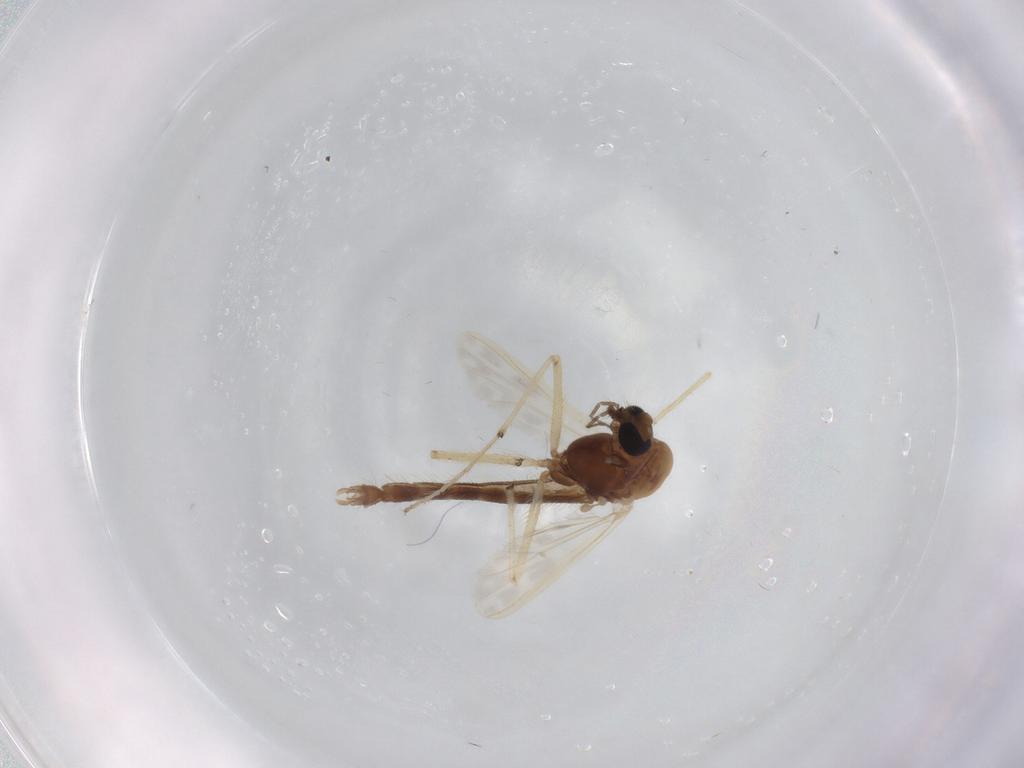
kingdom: Animalia
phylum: Arthropoda
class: Insecta
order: Diptera
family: Chironomidae
